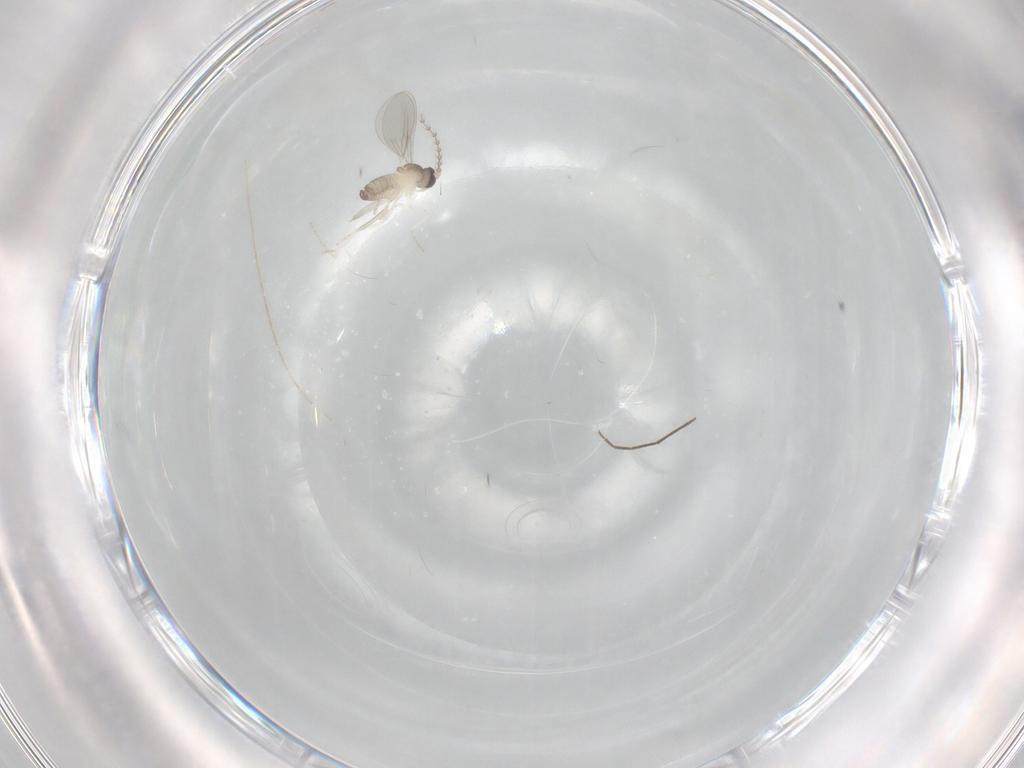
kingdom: Animalia
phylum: Arthropoda
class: Insecta
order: Diptera
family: Cecidomyiidae
